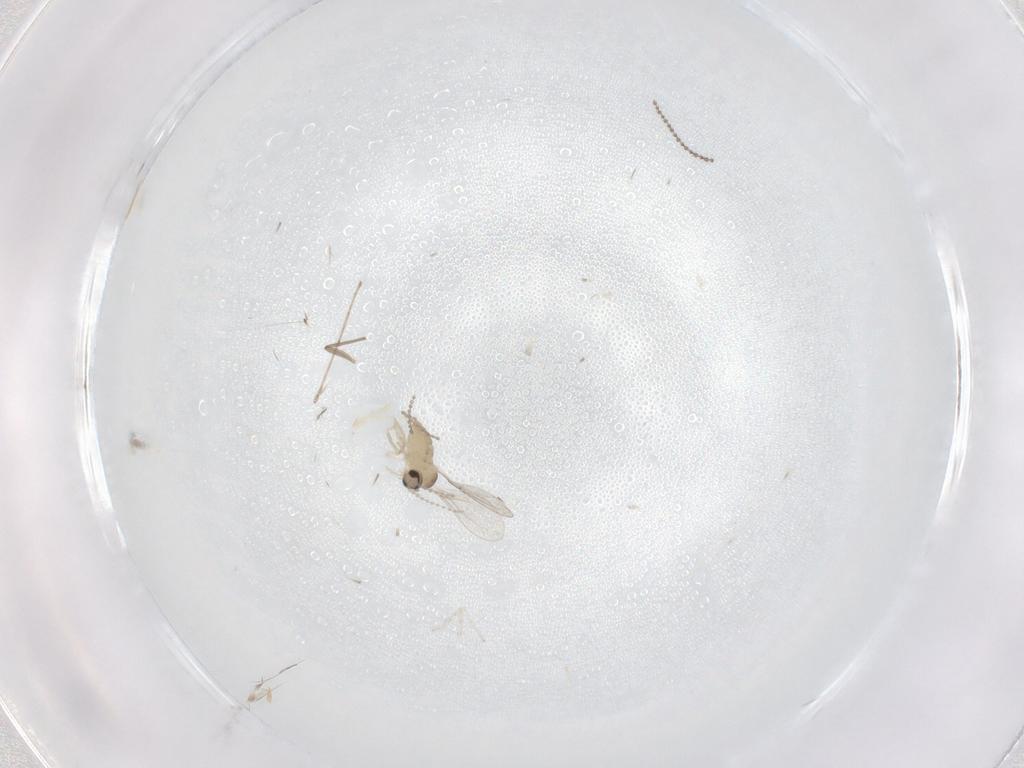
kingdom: Animalia
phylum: Arthropoda
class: Insecta
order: Diptera
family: Chironomidae
